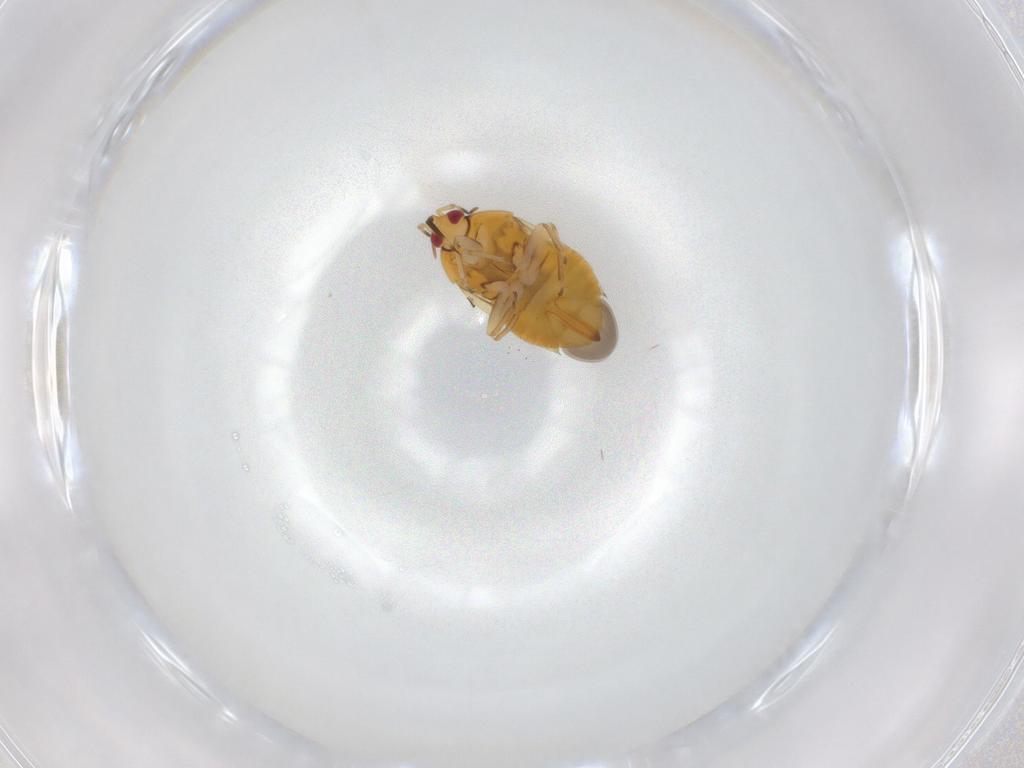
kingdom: Animalia
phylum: Arthropoda
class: Insecta
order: Hemiptera
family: Anthocoridae
